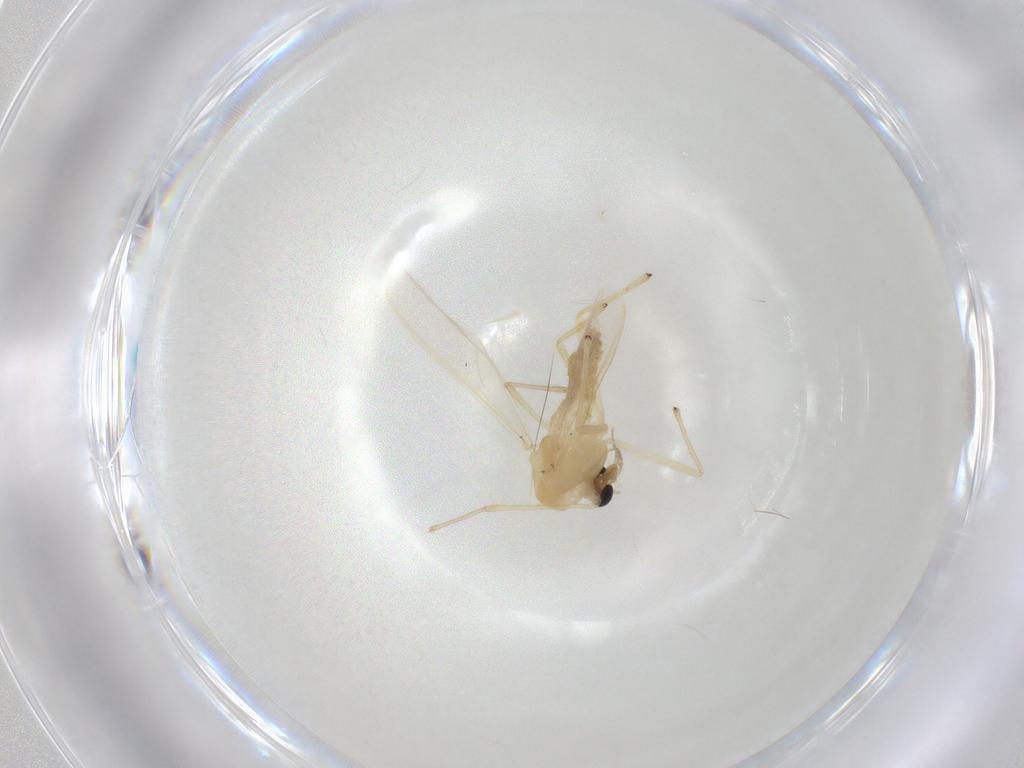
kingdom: Animalia
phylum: Arthropoda
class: Insecta
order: Diptera
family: Chironomidae
